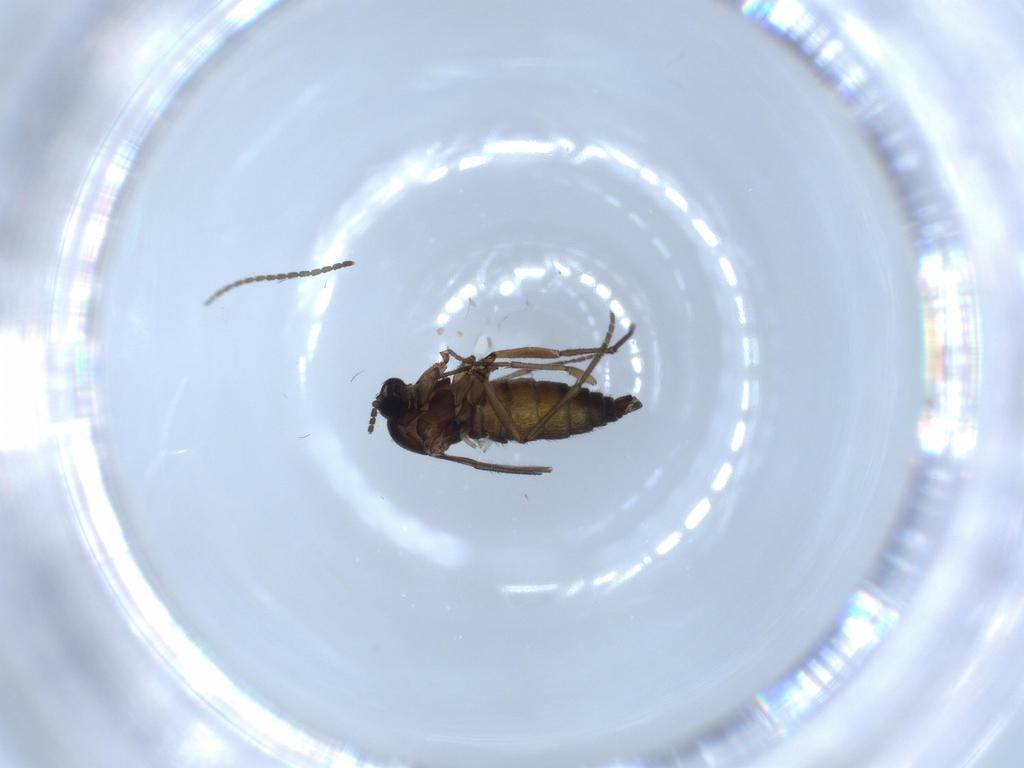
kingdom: Animalia
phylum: Arthropoda
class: Insecta
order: Diptera
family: Sciaridae
